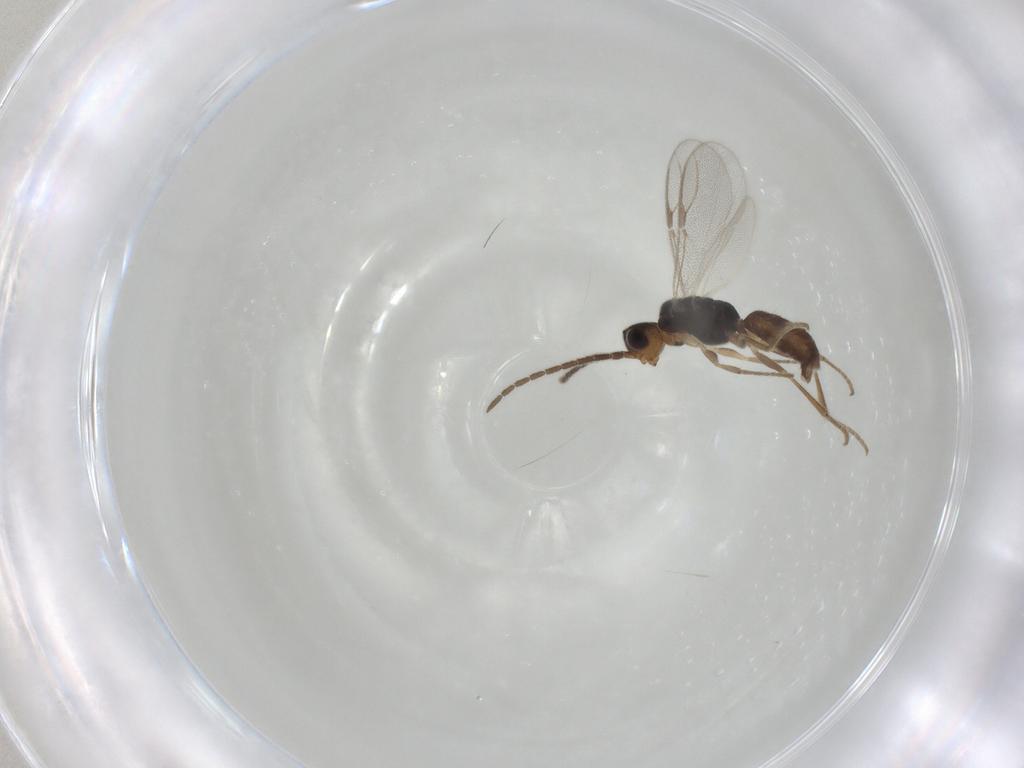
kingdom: Animalia
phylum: Arthropoda
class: Insecta
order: Hymenoptera
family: Dryinidae
